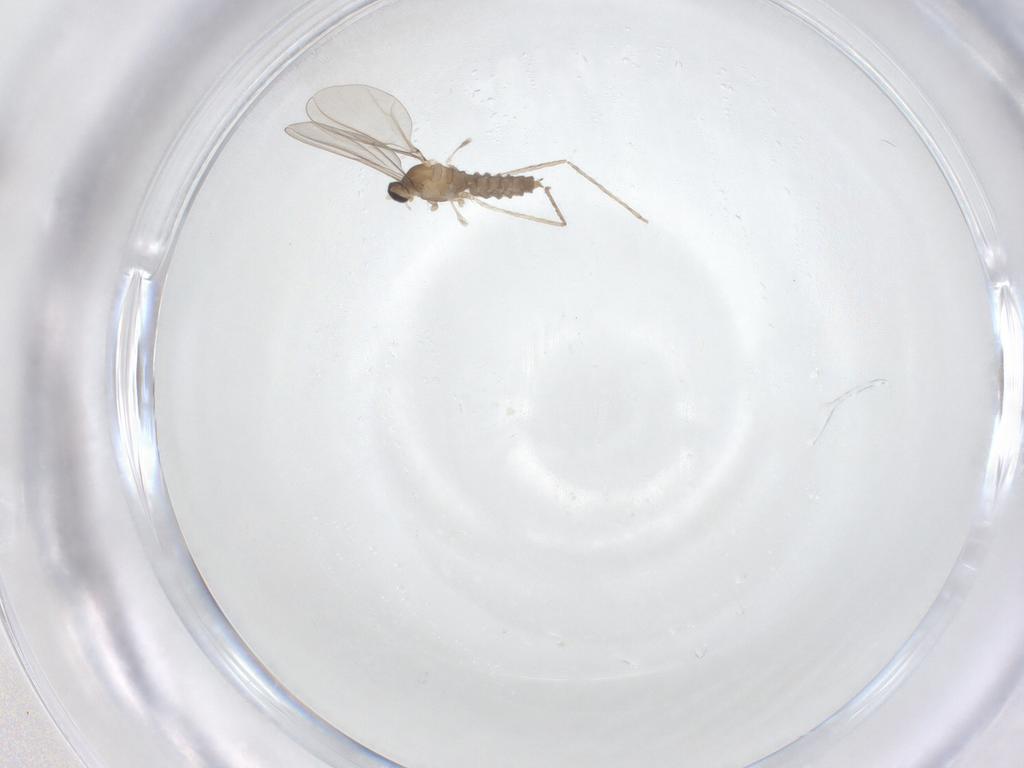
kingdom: Animalia
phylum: Arthropoda
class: Insecta
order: Diptera
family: Cecidomyiidae
